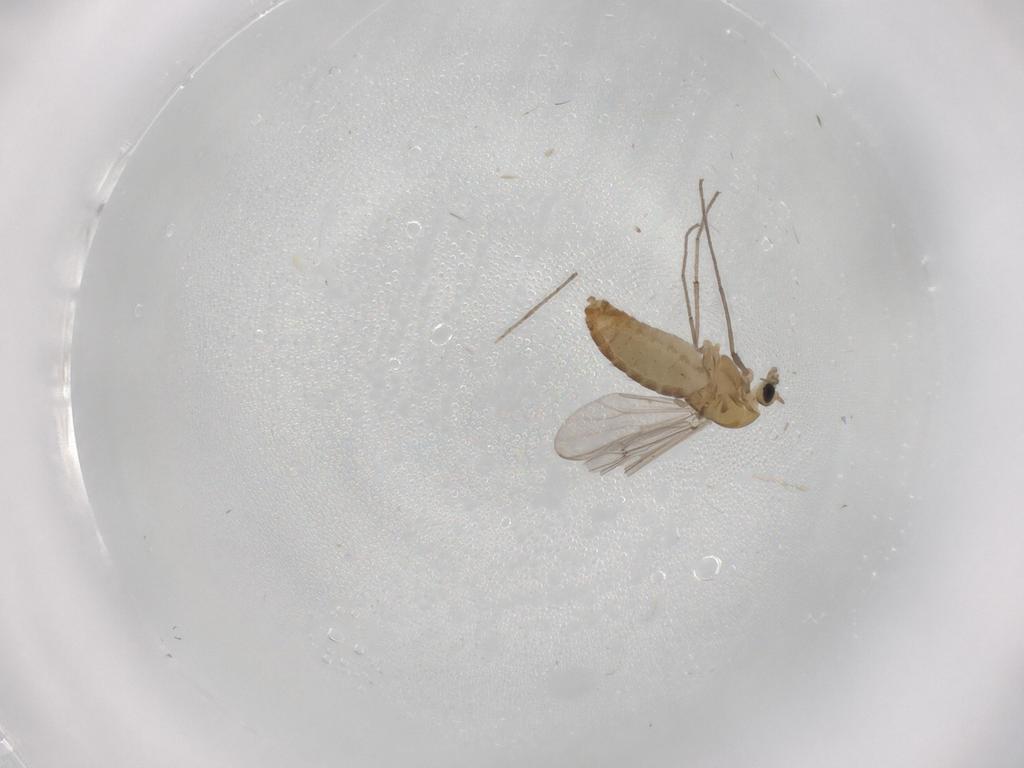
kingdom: Animalia
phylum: Arthropoda
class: Insecta
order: Diptera
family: Chironomidae
